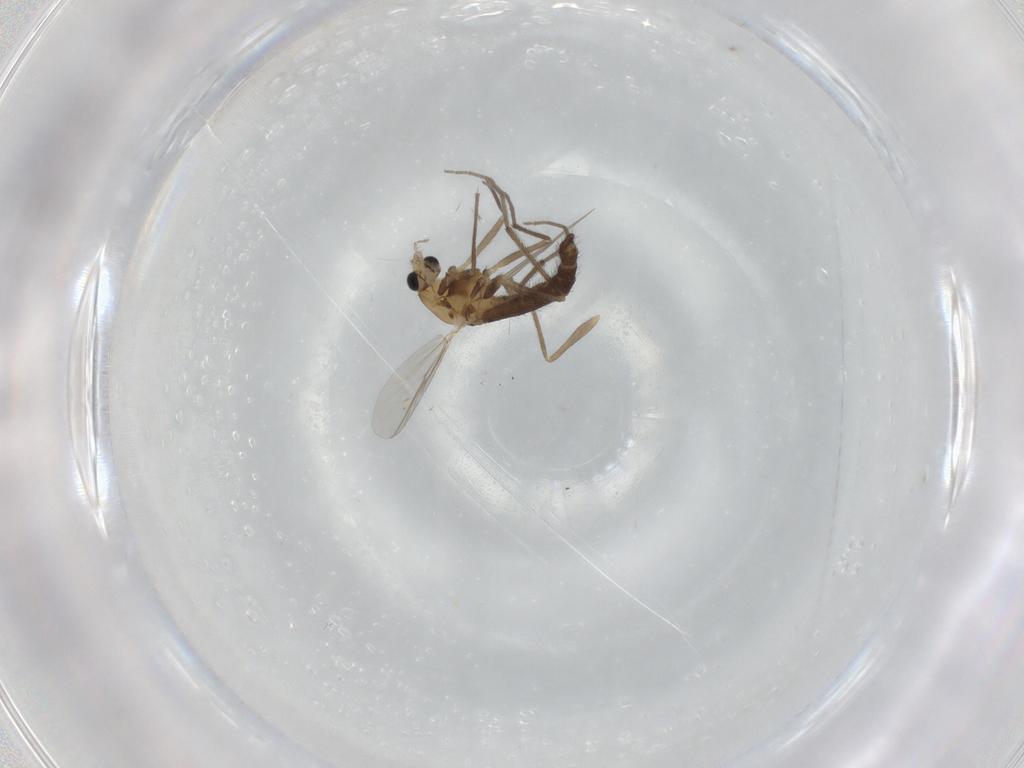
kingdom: Animalia
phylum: Arthropoda
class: Insecta
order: Diptera
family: Chironomidae
